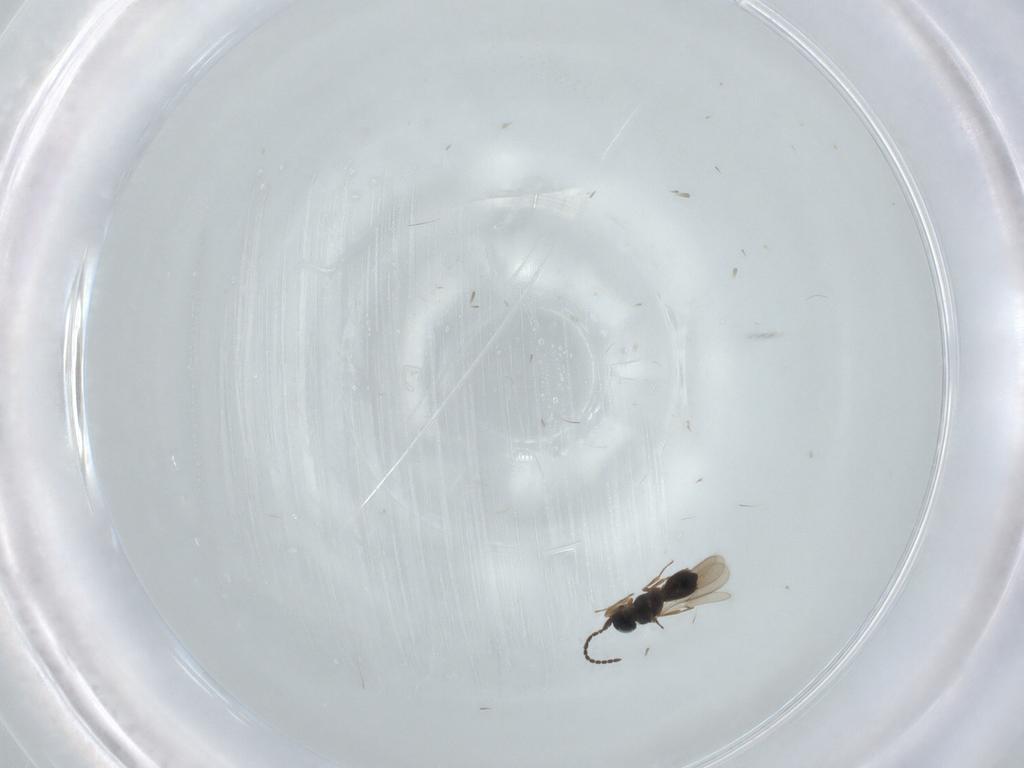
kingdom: Animalia
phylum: Arthropoda
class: Insecta
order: Hymenoptera
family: Scelionidae
